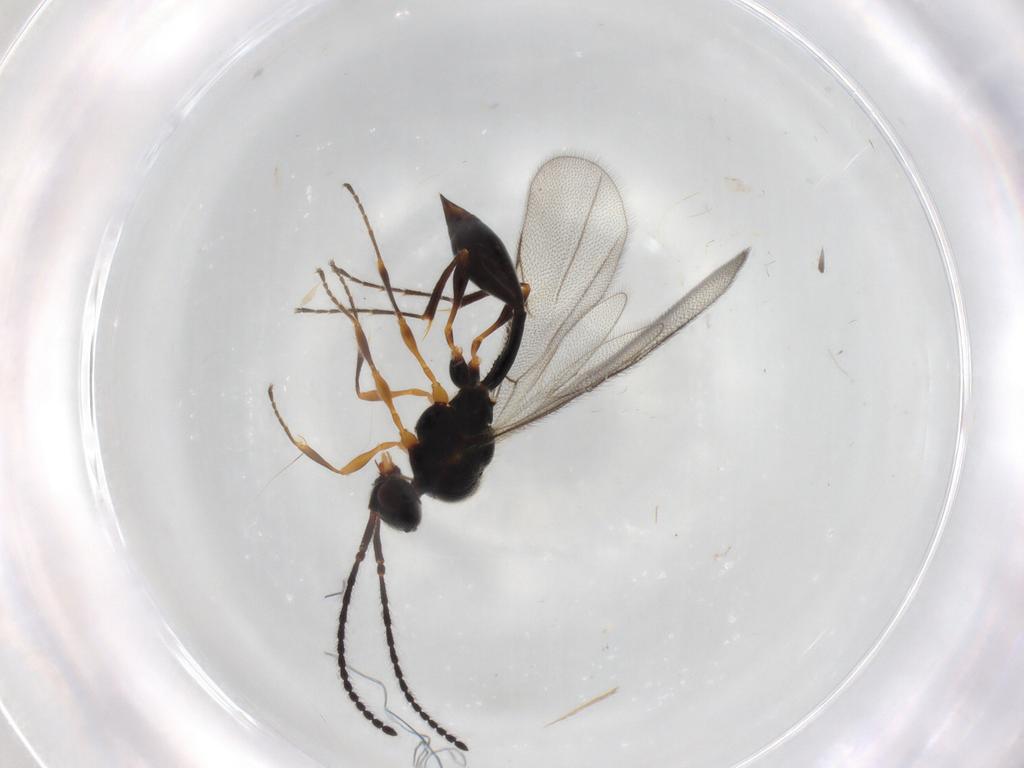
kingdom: Animalia
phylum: Arthropoda
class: Insecta
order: Hymenoptera
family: Diapriidae
